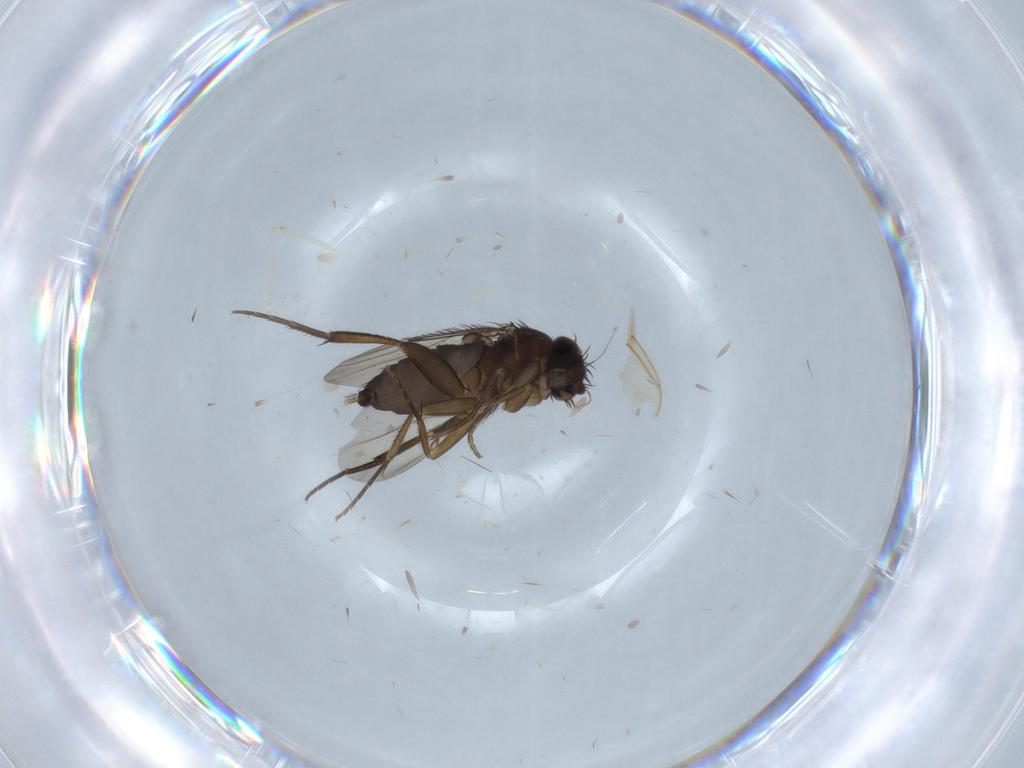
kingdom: Animalia
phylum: Arthropoda
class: Insecta
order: Diptera
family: Phoridae
